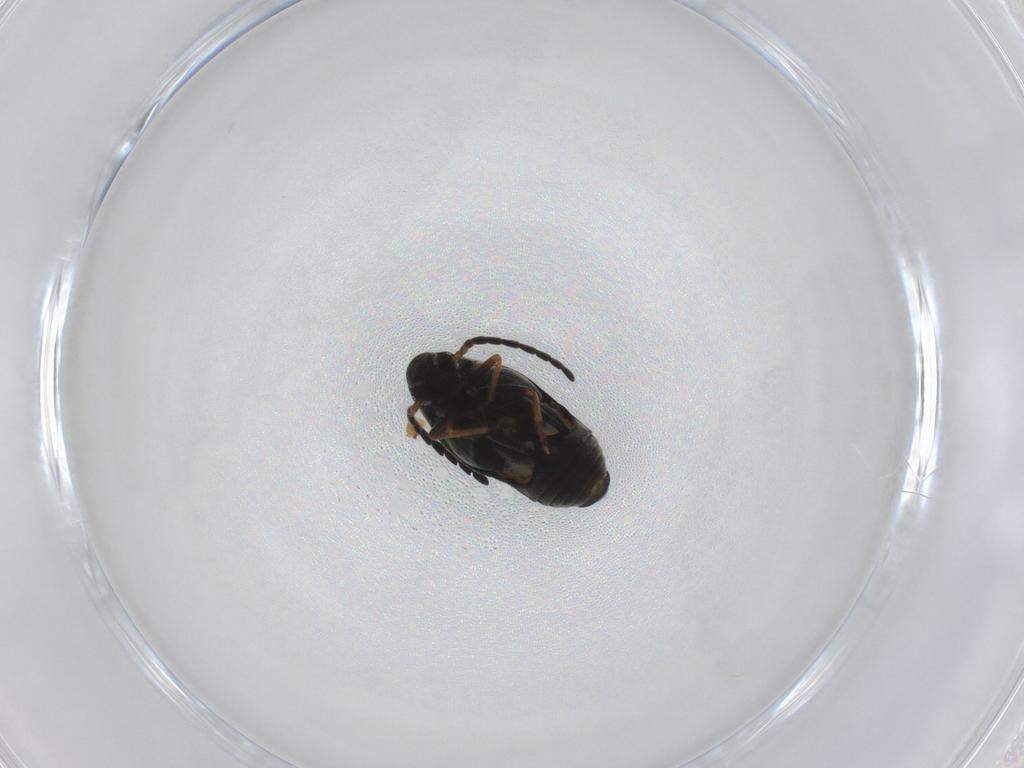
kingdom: Animalia
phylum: Arthropoda
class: Insecta
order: Coleoptera
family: Chrysomelidae
